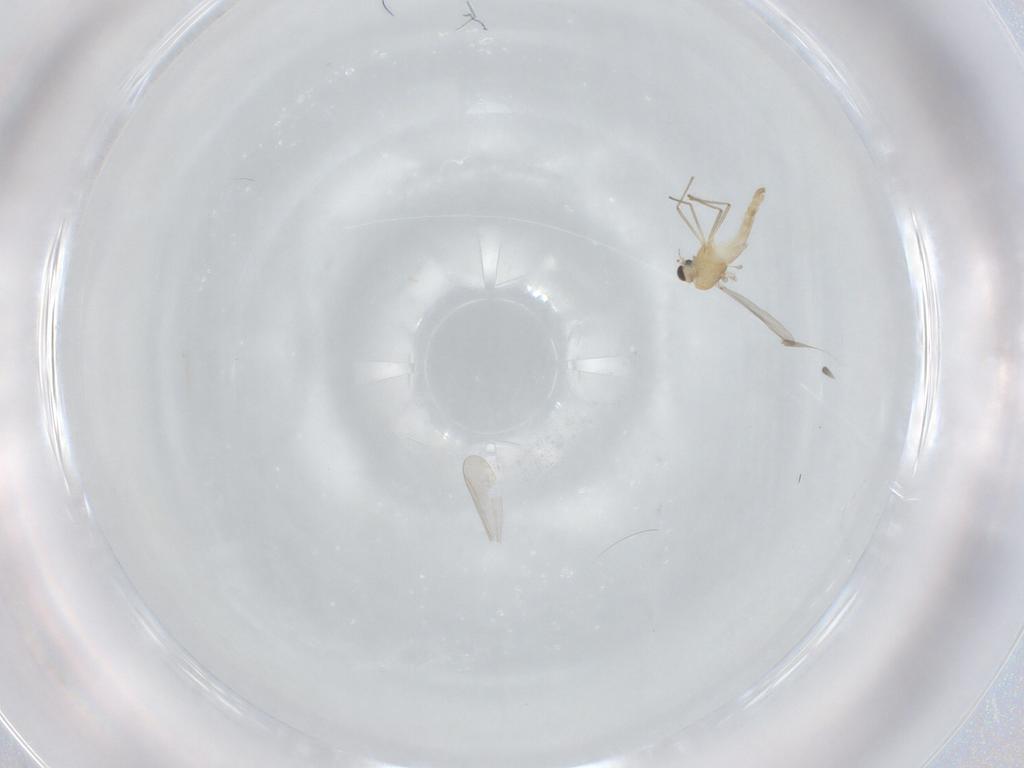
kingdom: Animalia
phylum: Arthropoda
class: Insecta
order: Diptera
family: Chironomidae
